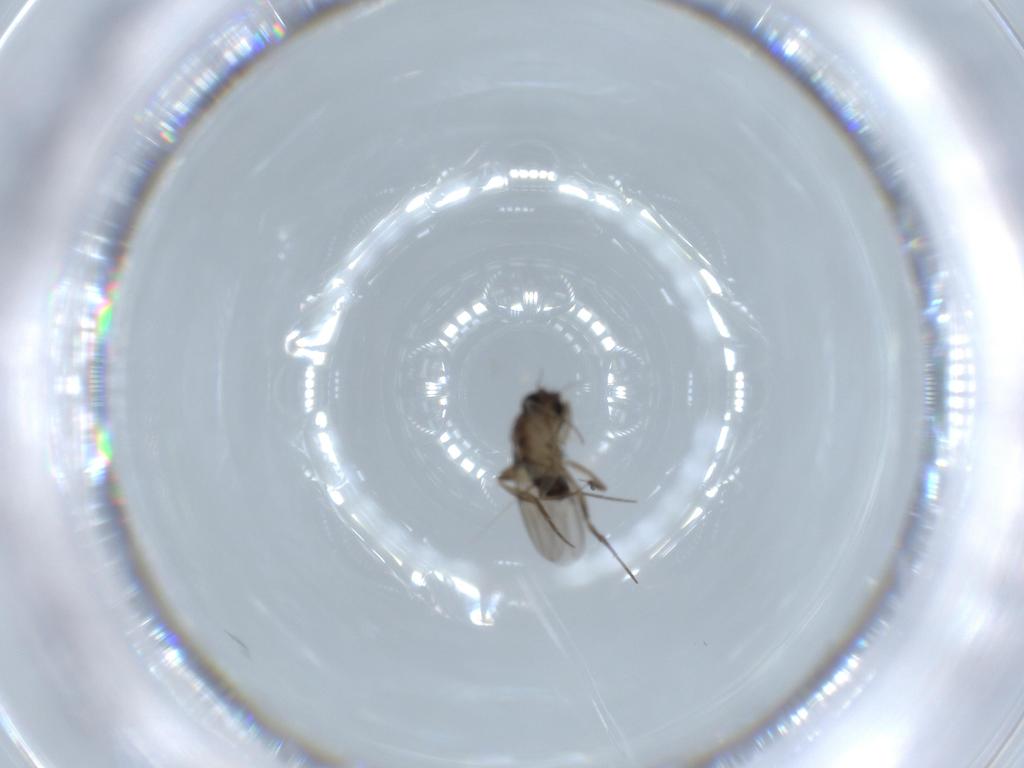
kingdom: Animalia
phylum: Arthropoda
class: Insecta
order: Diptera
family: Phoridae
